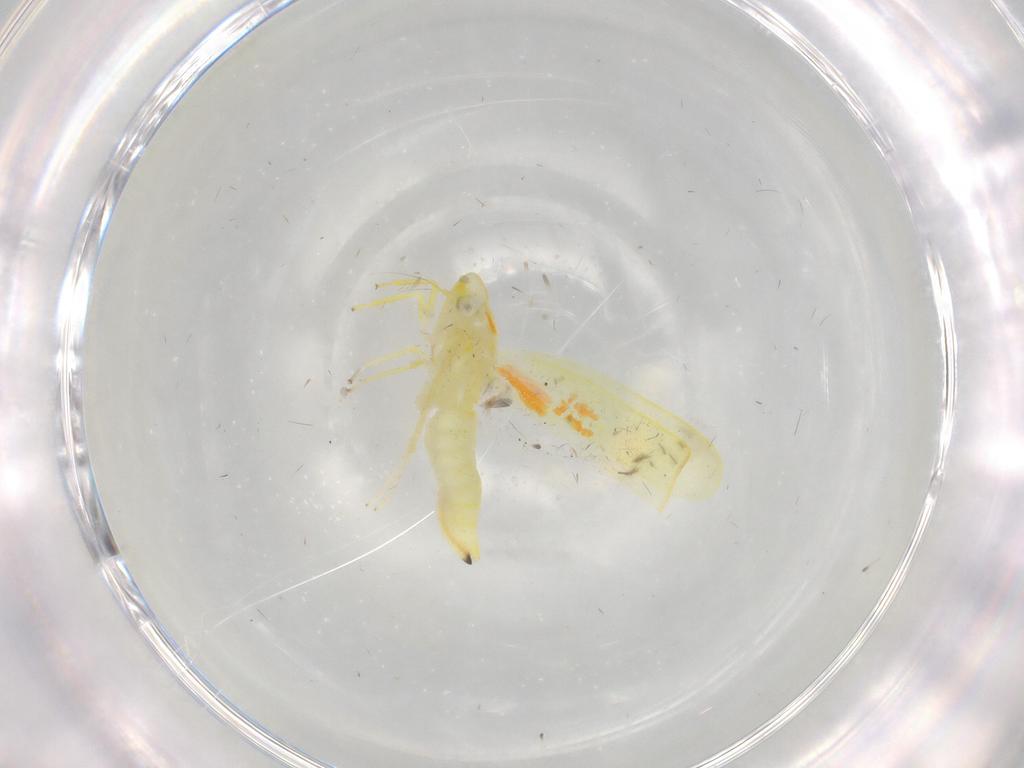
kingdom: Animalia
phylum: Arthropoda
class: Insecta
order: Hemiptera
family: Cicadellidae
